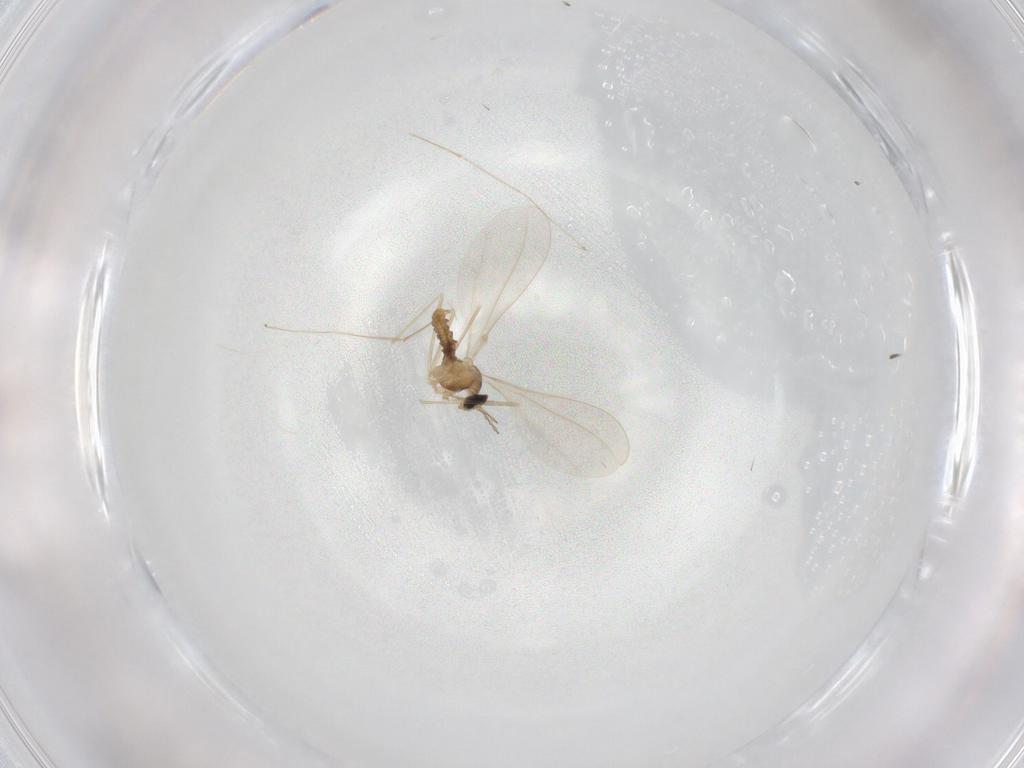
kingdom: Animalia
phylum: Arthropoda
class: Insecta
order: Diptera
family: Cecidomyiidae
